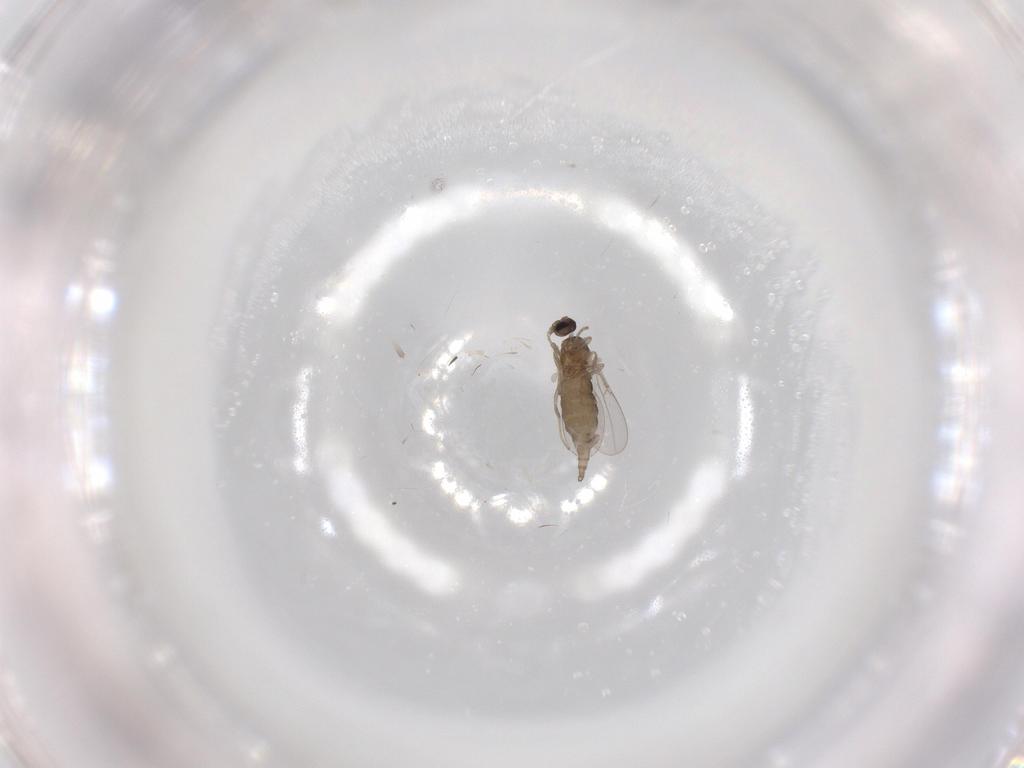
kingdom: Animalia
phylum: Arthropoda
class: Insecta
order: Diptera
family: Cecidomyiidae
